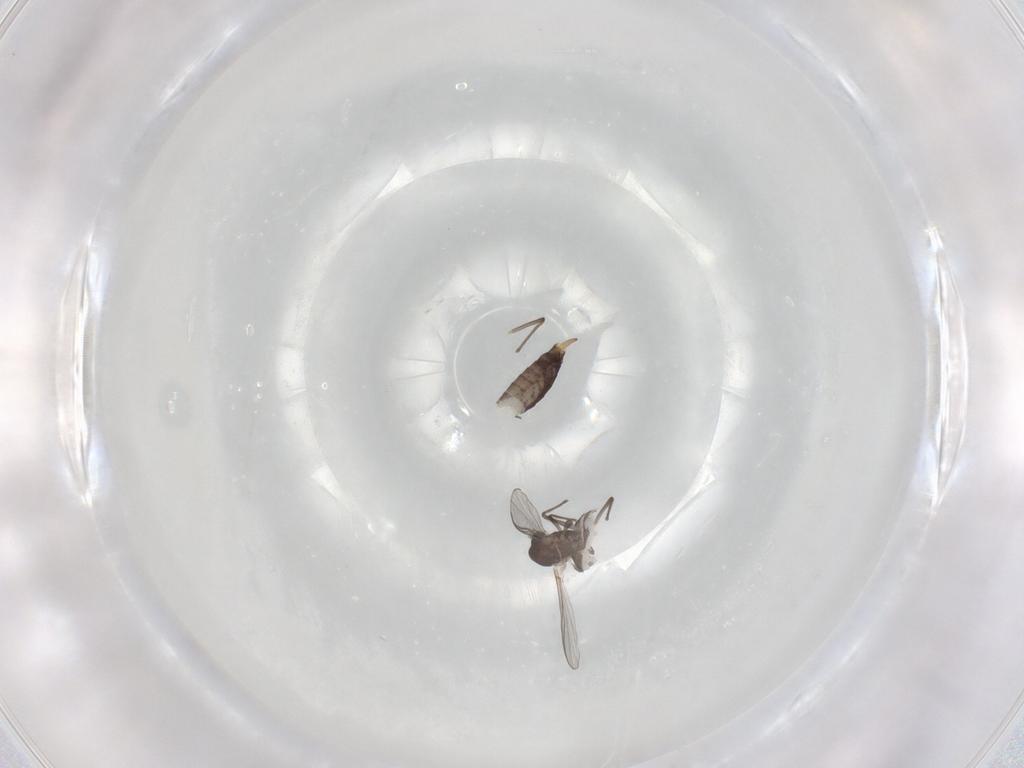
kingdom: Animalia
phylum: Arthropoda
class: Insecta
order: Diptera
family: Chironomidae
